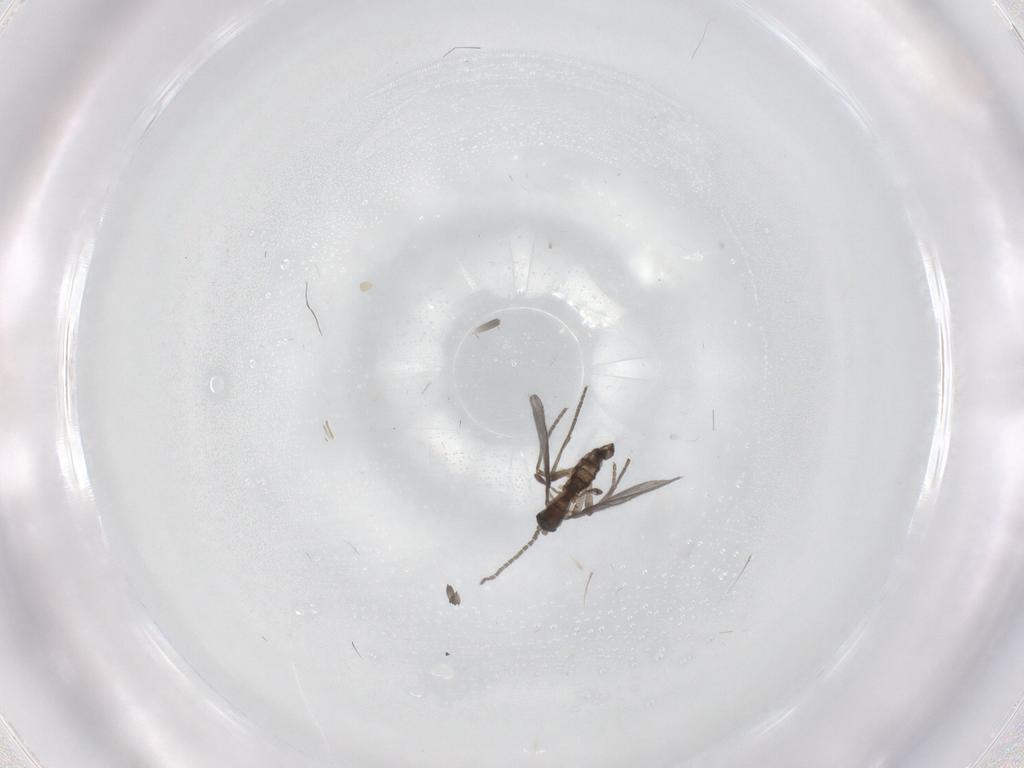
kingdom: Animalia
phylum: Arthropoda
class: Insecta
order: Diptera
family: Sciaridae
